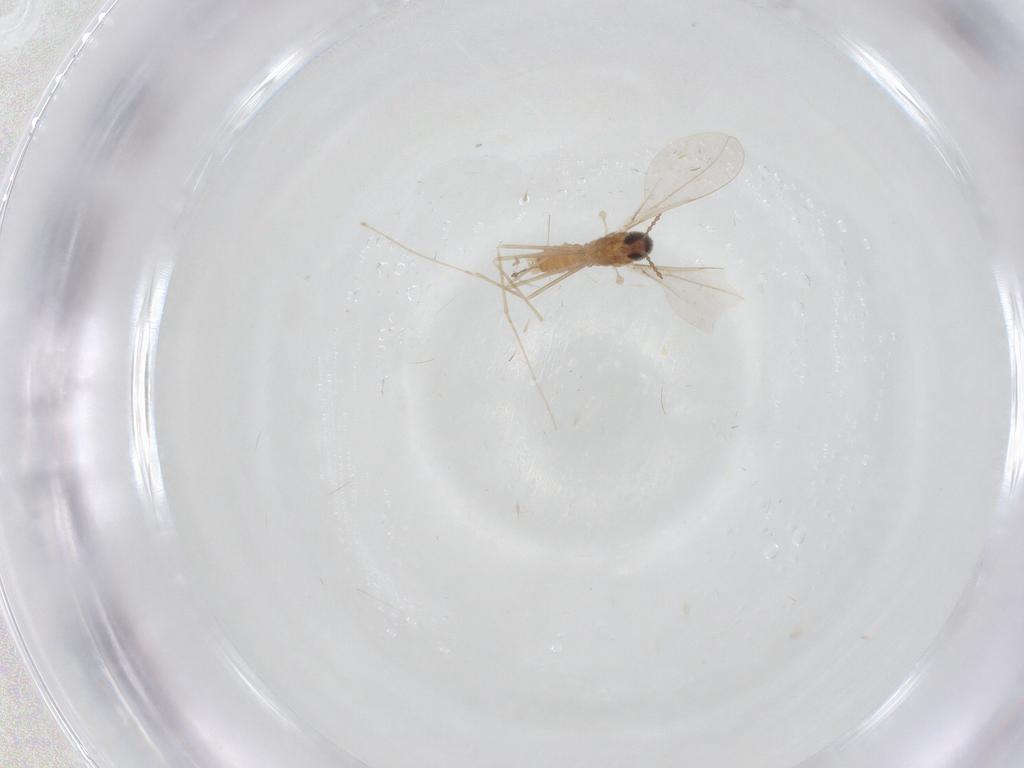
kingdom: Animalia
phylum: Arthropoda
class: Insecta
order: Diptera
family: Cecidomyiidae
